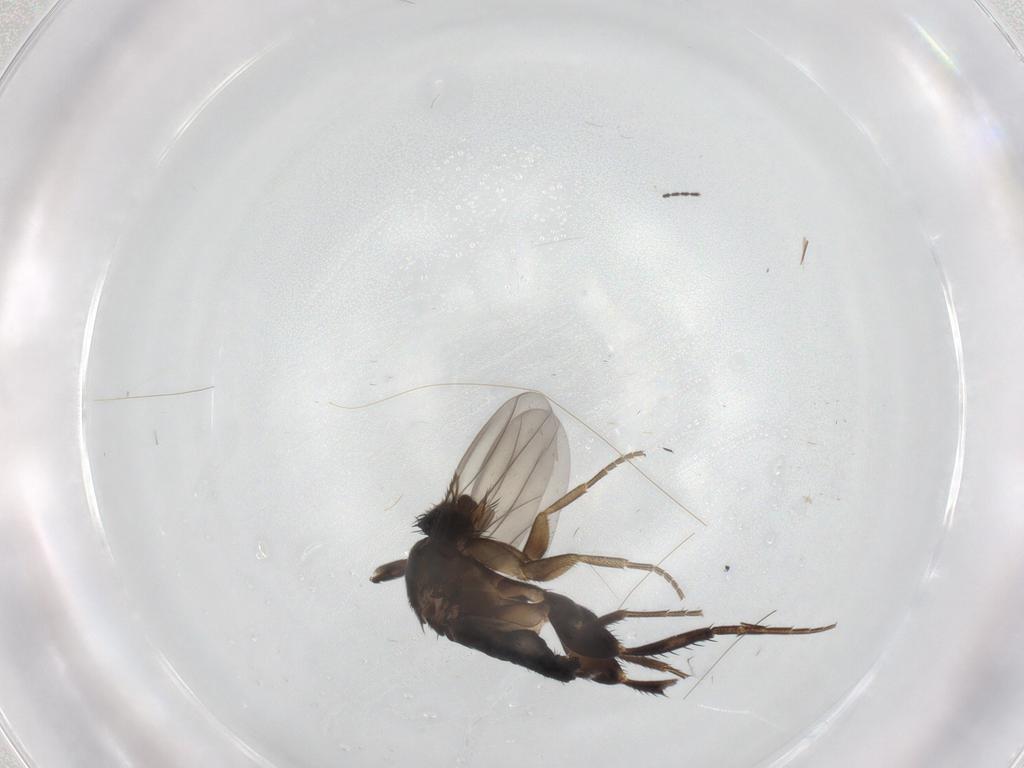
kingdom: Animalia
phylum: Arthropoda
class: Insecta
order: Diptera
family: Phoridae
